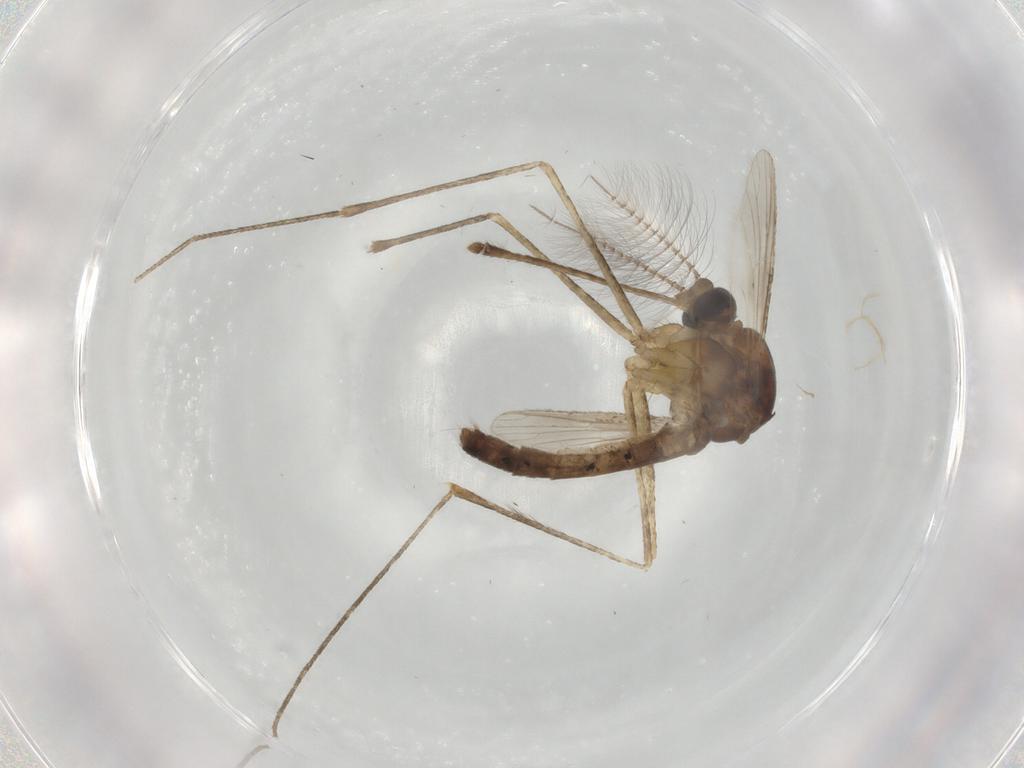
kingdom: Animalia
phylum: Arthropoda
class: Insecta
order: Diptera
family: Culicidae
